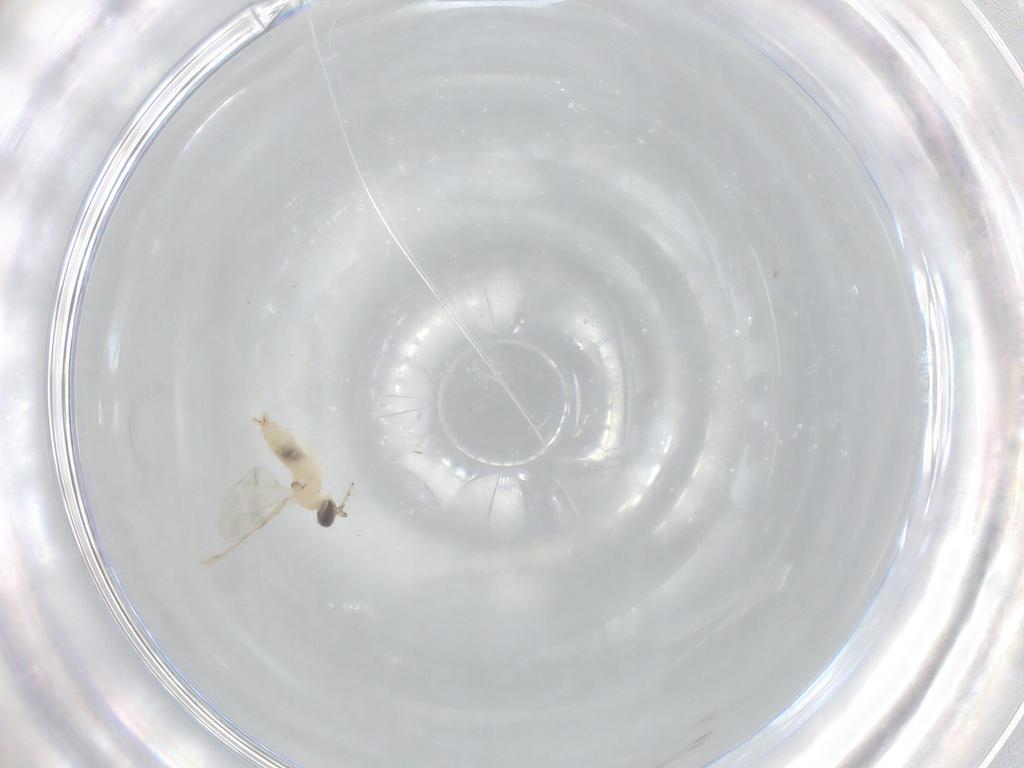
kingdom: Animalia
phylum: Arthropoda
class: Insecta
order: Diptera
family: Cecidomyiidae
